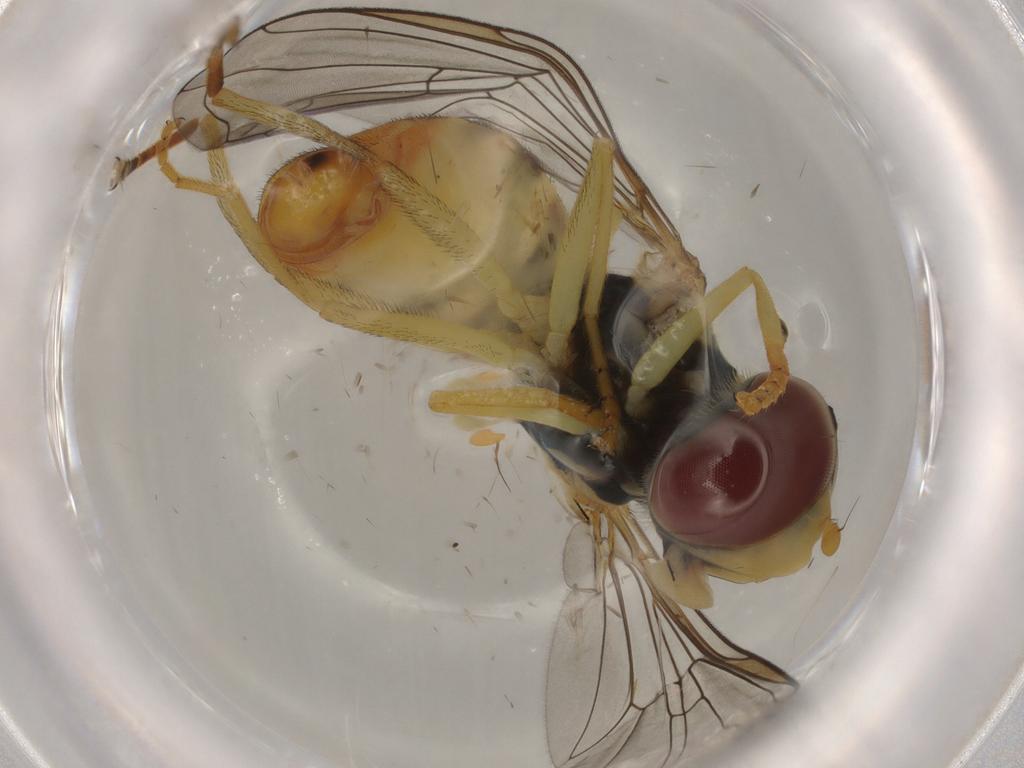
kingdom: Animalia
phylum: Arthropoda
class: Insecta
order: Diptera
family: Syrphidae
